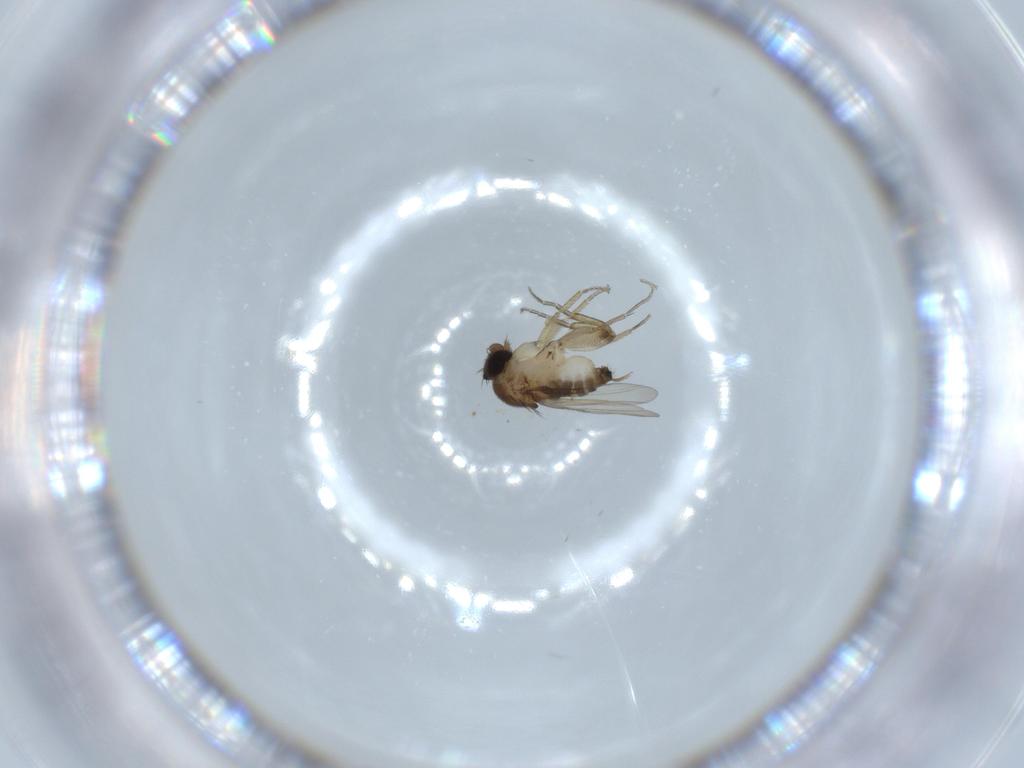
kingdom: Animalia
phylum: Arthropoda
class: Insecta
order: Diptera
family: Phoridae
